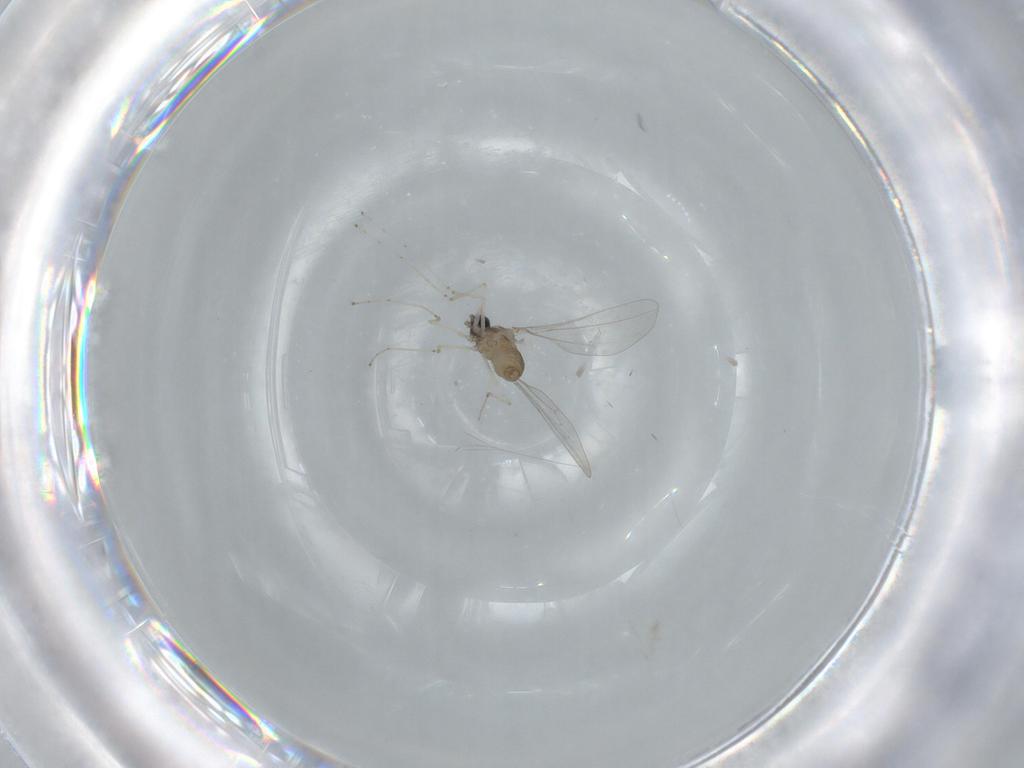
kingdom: Animalia
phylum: Arthropoda
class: Insecta
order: Diptera
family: Cecidomyiidae
